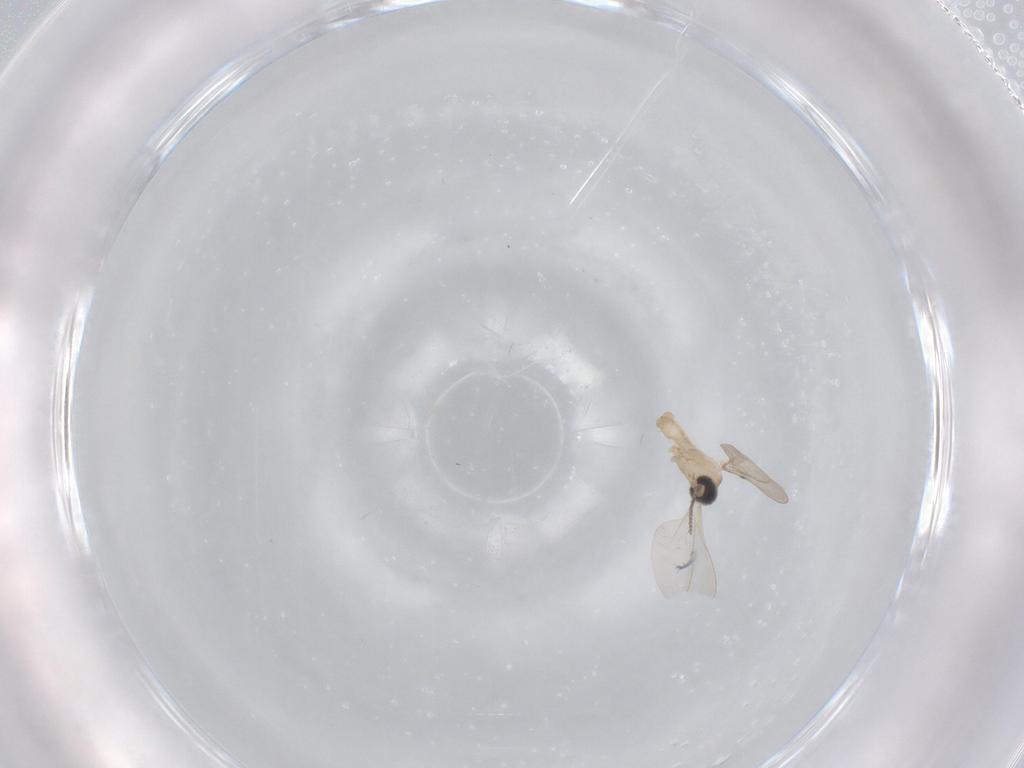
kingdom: Animalia
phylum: Arthropoda
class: Insecta
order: Diptera
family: Cecidomyiidae
